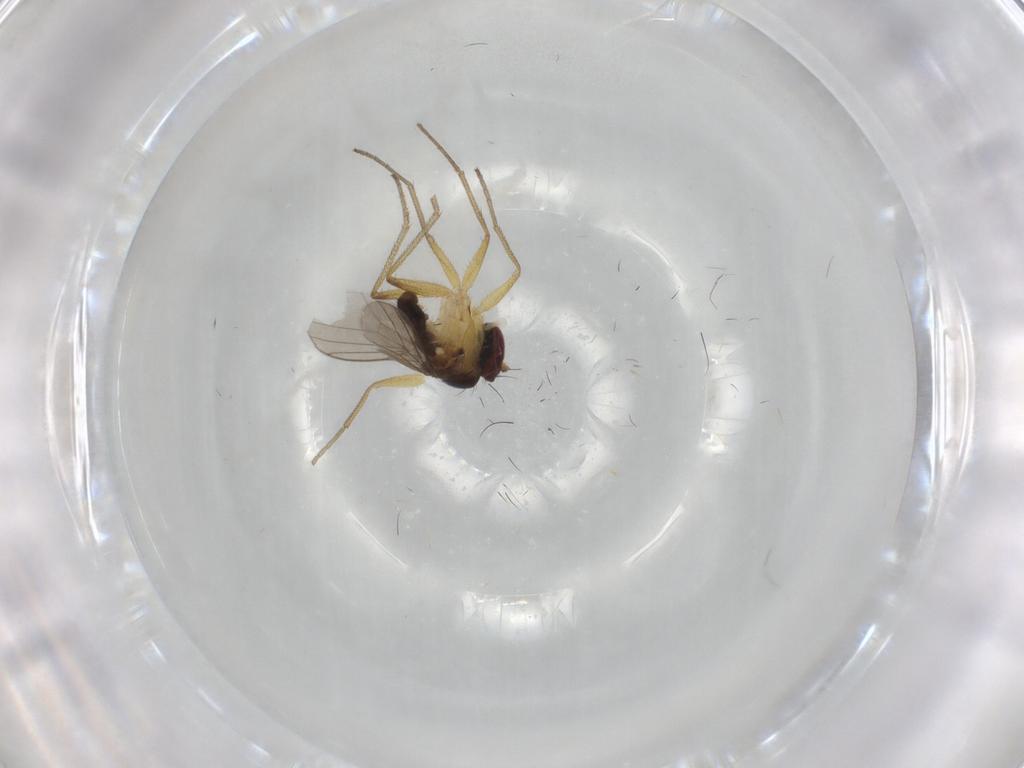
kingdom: Animalia
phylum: Arthropoda
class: Insecta
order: Diptera
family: Dolichopodidae
